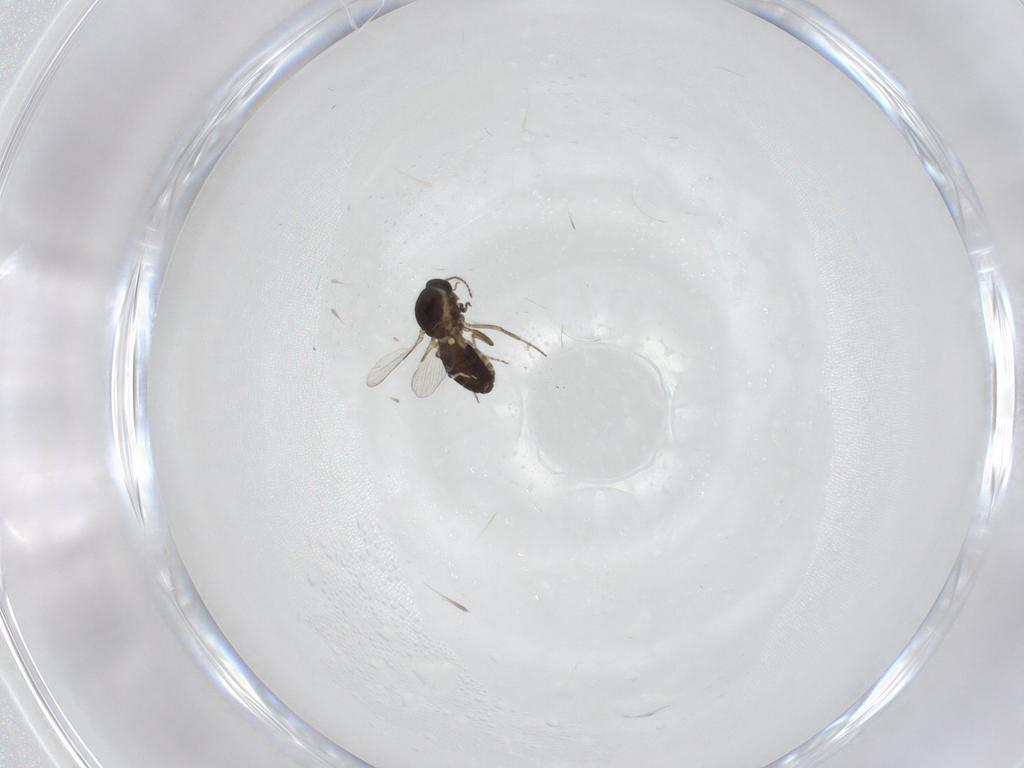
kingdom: Animalia
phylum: Arthropoda
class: Insecta
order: Diptera
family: Ceratopogonidae
